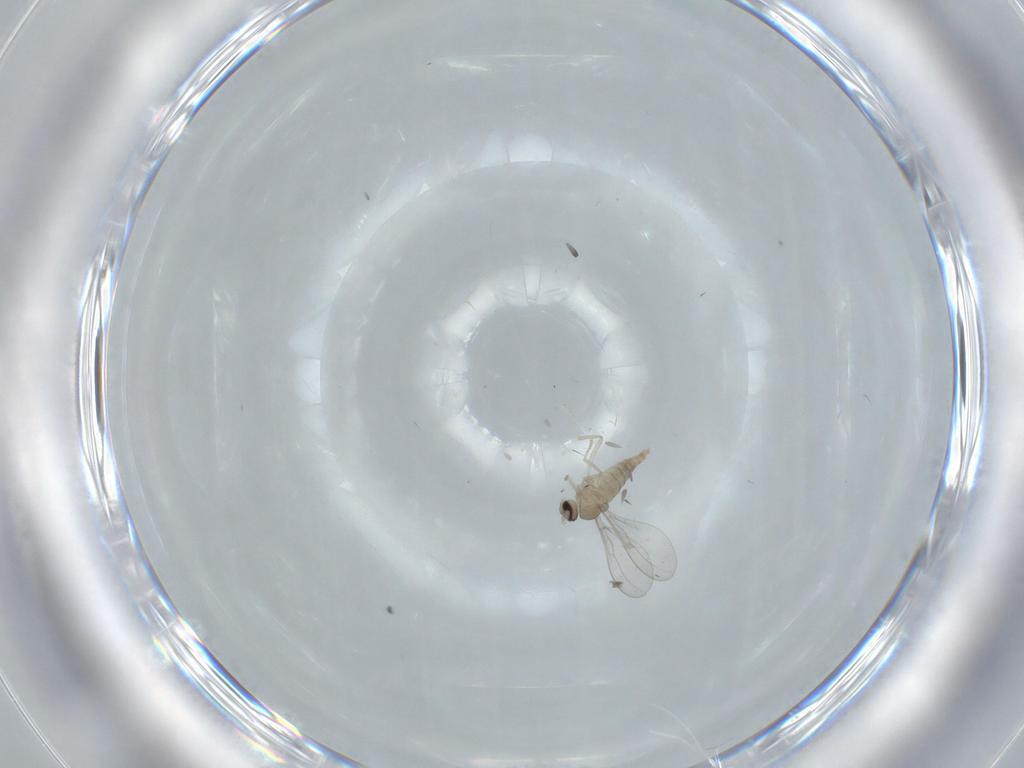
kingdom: Animalia
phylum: Arthropoda
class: Insecta
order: Diptera
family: Cecidomyiidae
